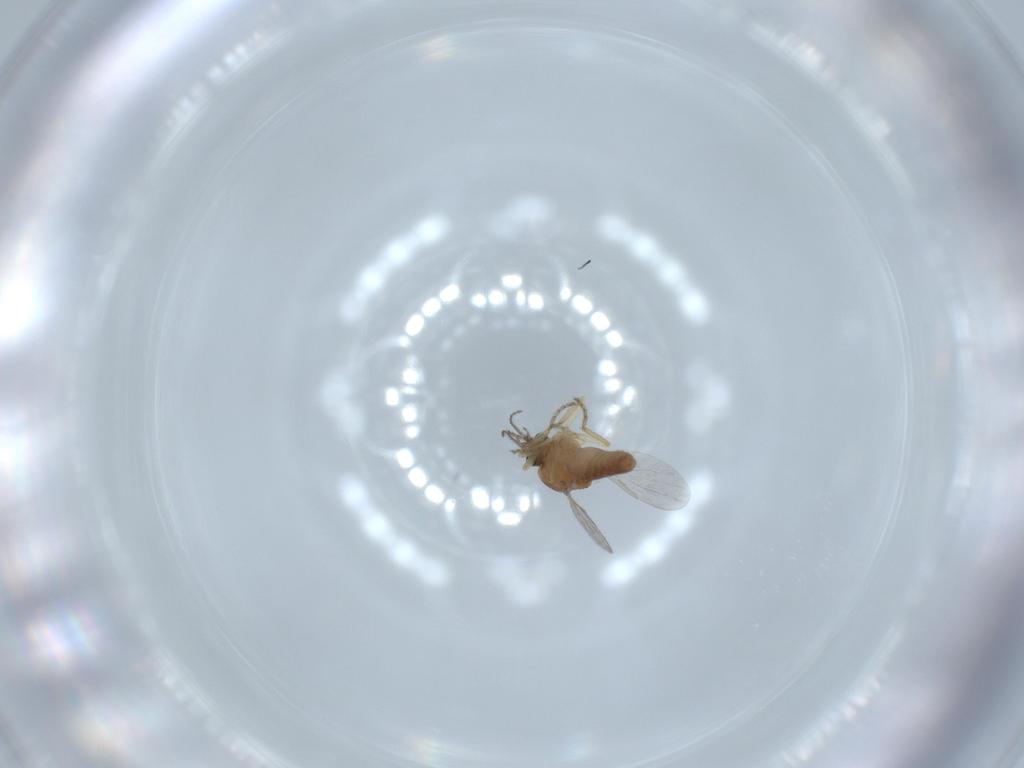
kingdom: Animalia
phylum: Arthropoda
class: Insecta
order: Diptera
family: Ceratopogonidae
